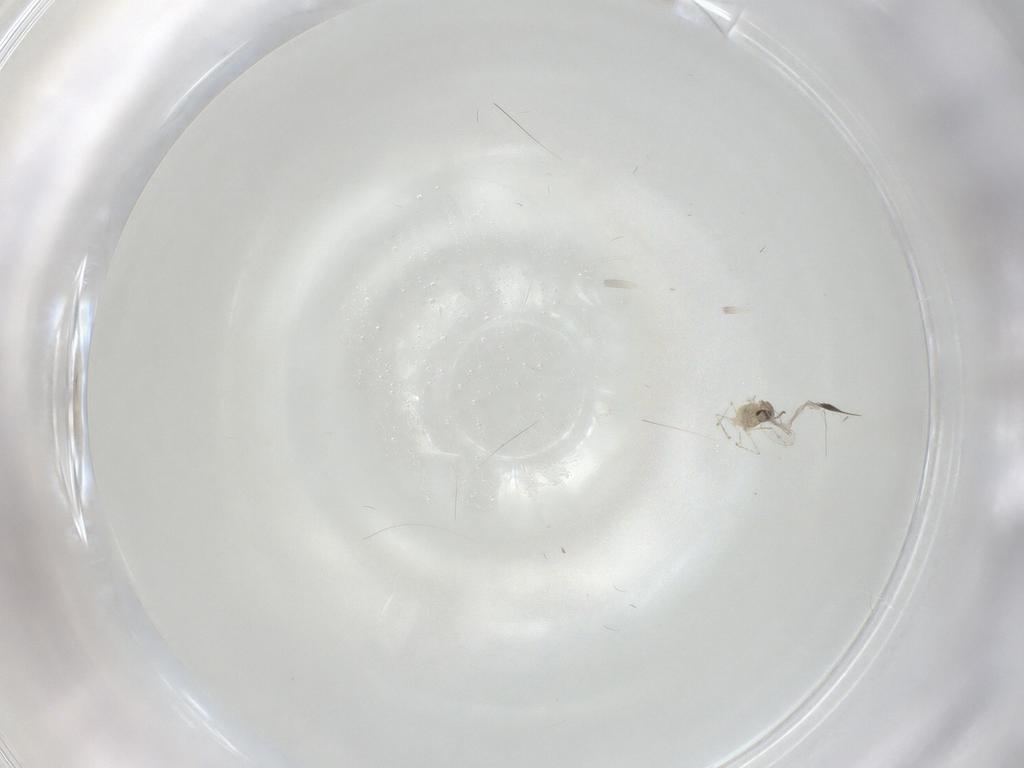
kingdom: Animalia
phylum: Arthropoda
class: Insecta
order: Diptera
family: Cecidomyiidae
